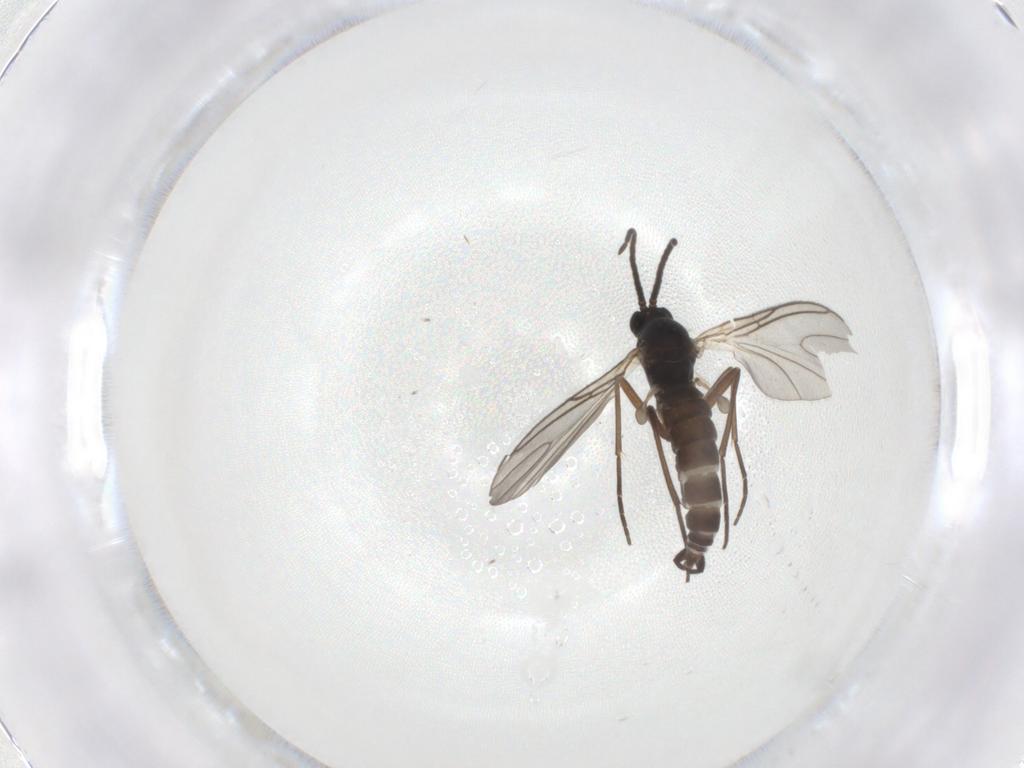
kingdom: Animalia
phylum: Arthropoda
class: Insecta
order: Diptera
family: Sciaridae
